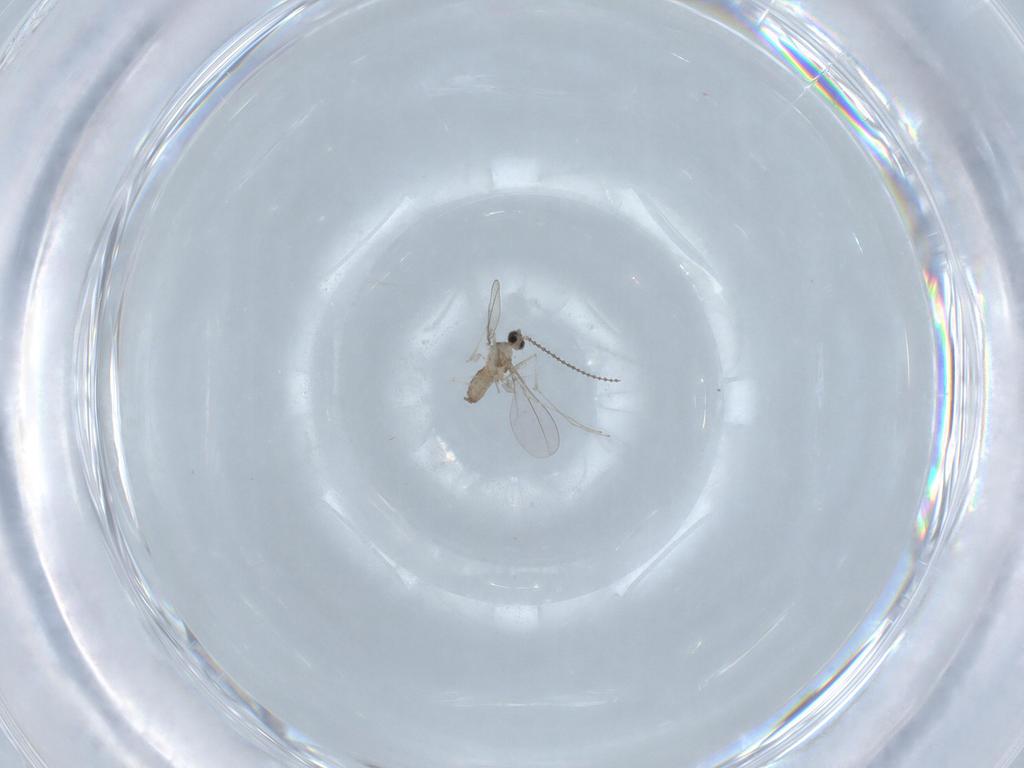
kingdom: Animalia
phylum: Arthropoda
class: Insecta
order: Diptera
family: Cecidomyiidae
